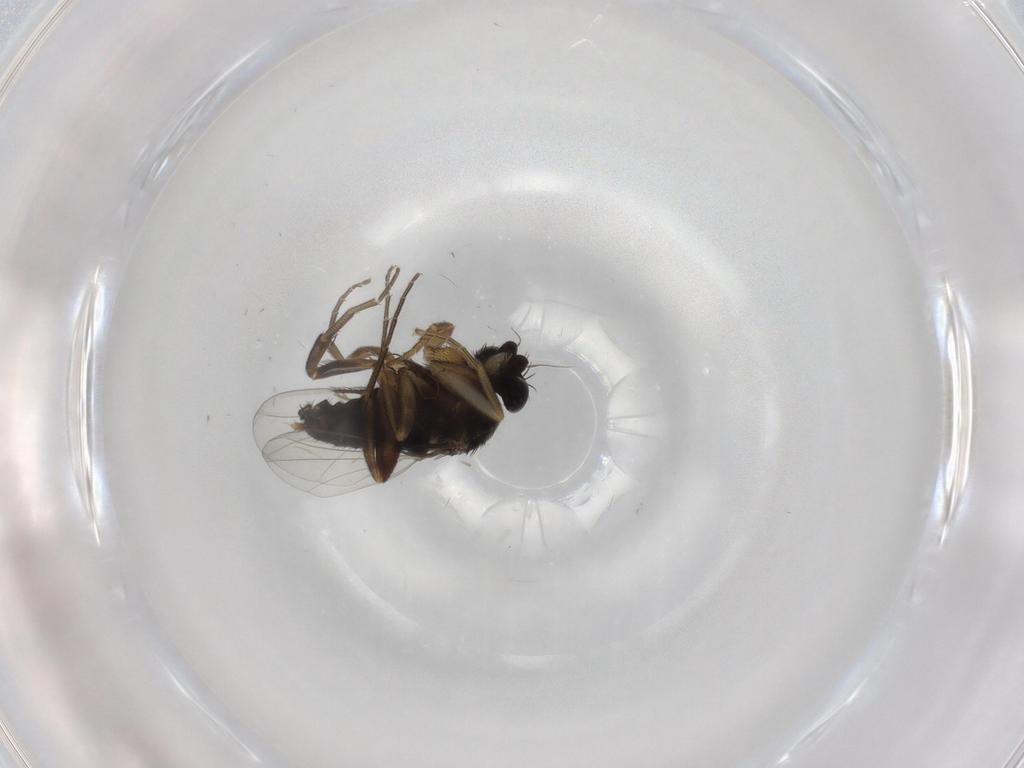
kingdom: Animalia
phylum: Arthropoda
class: Insecta
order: Diptera
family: Phoridae
